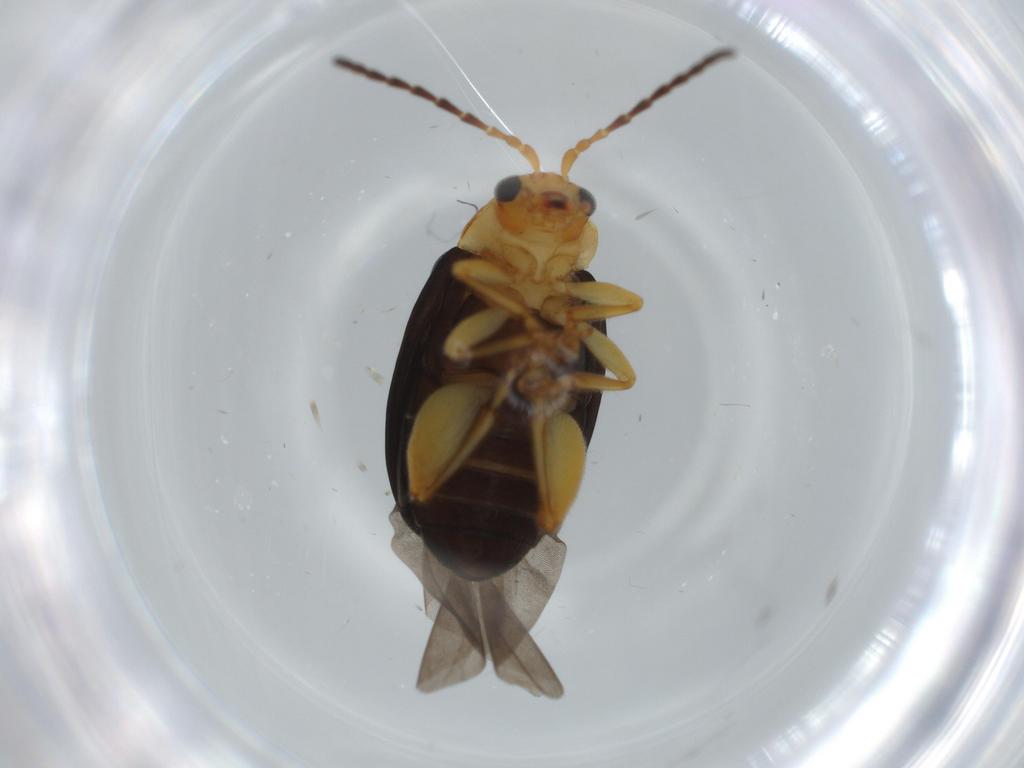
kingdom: Animalia
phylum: Arthropoda
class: Insecta
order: Coleoptera
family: Chrysomelidae
